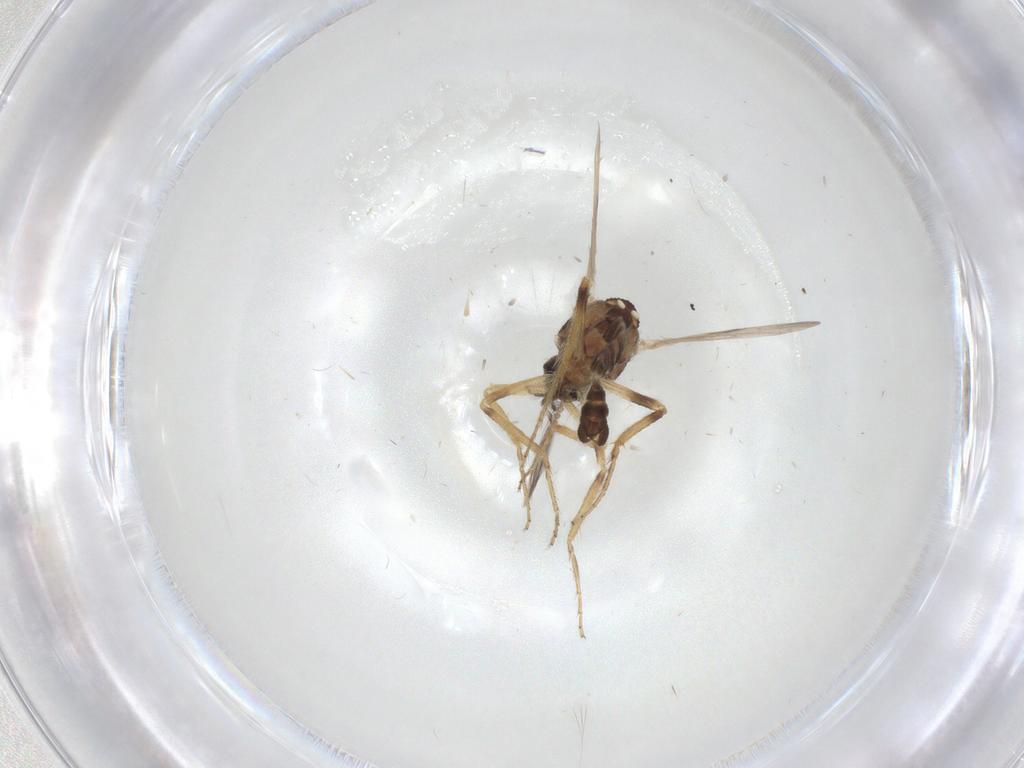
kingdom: Animalia
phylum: Arthropoda
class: Insecta
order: Diptera
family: Ceratopogonidae
